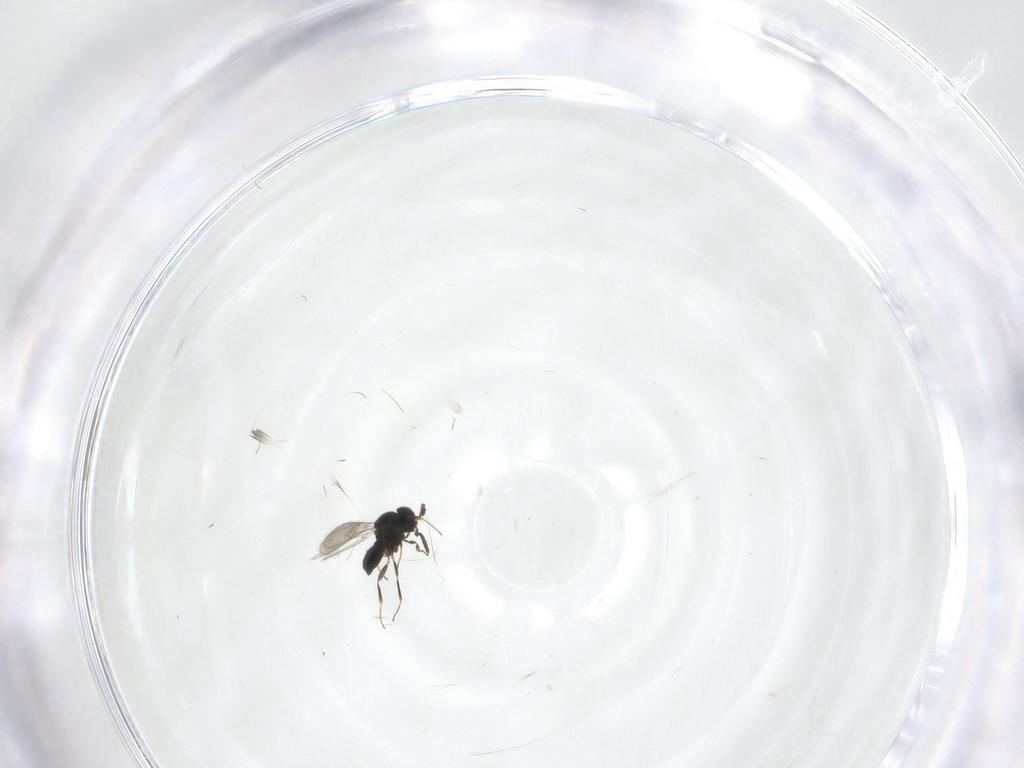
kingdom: Animalia
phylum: Arthropoda
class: Insecta
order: Hymenoptera
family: Scelionidae
